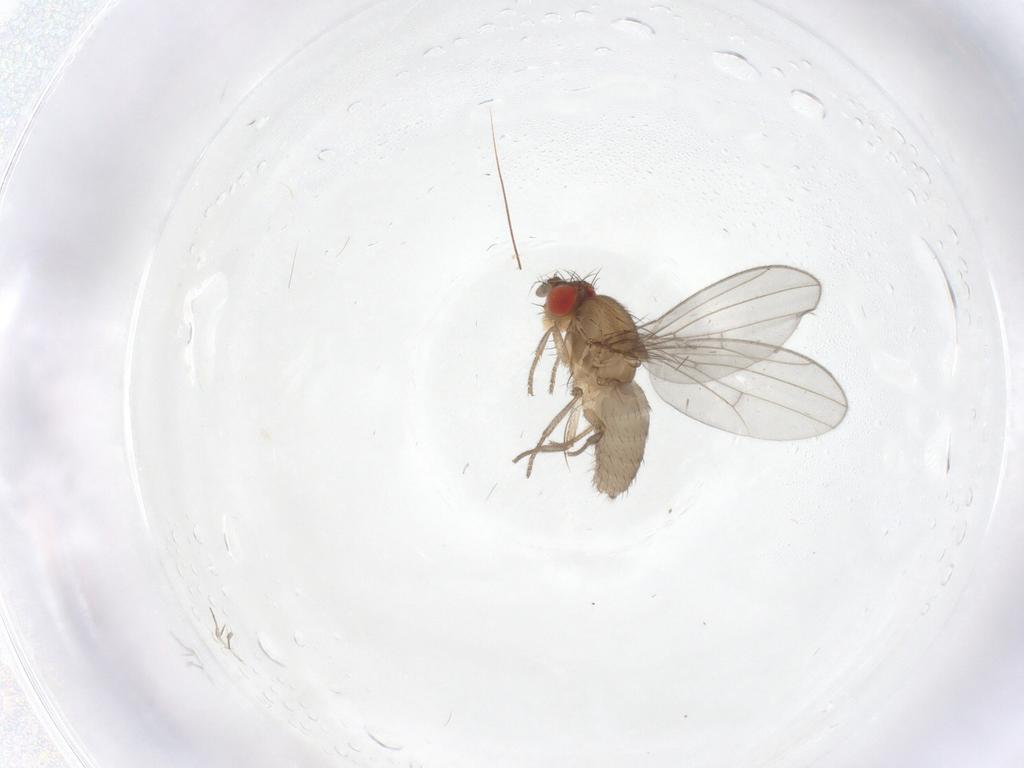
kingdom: Animalia
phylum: Arthropoda
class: Insecta
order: Diptera
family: Drosophilidae
